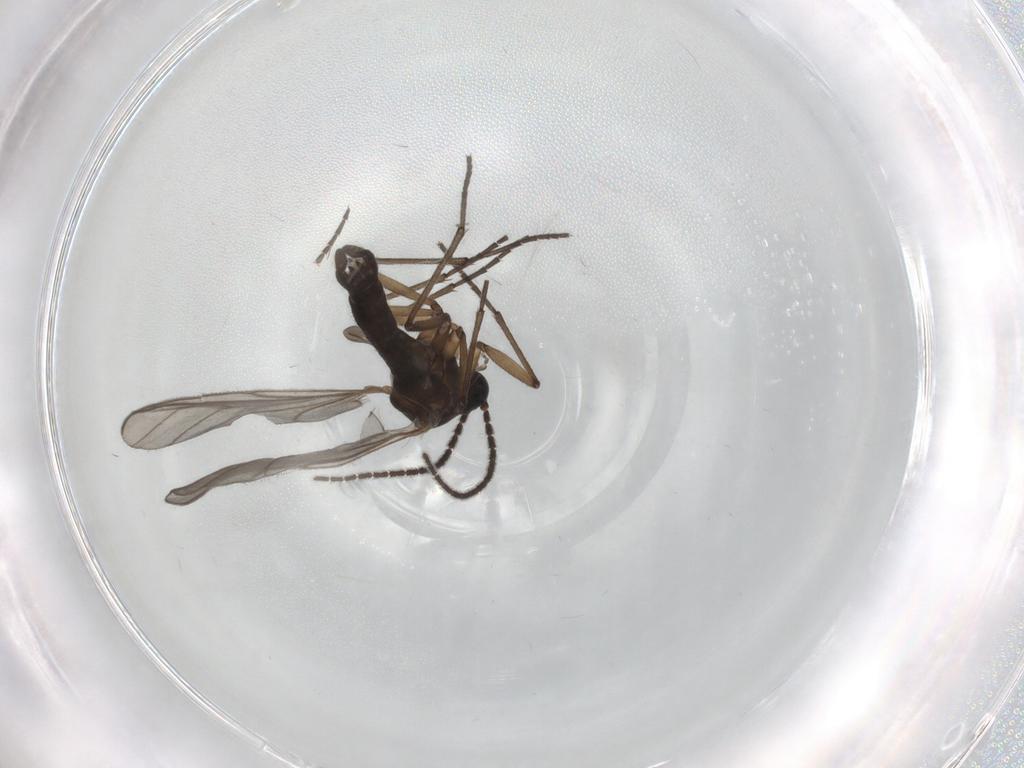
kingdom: Animalia
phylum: Arthropoda
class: Insecta
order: Diptera
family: Sciaridae
